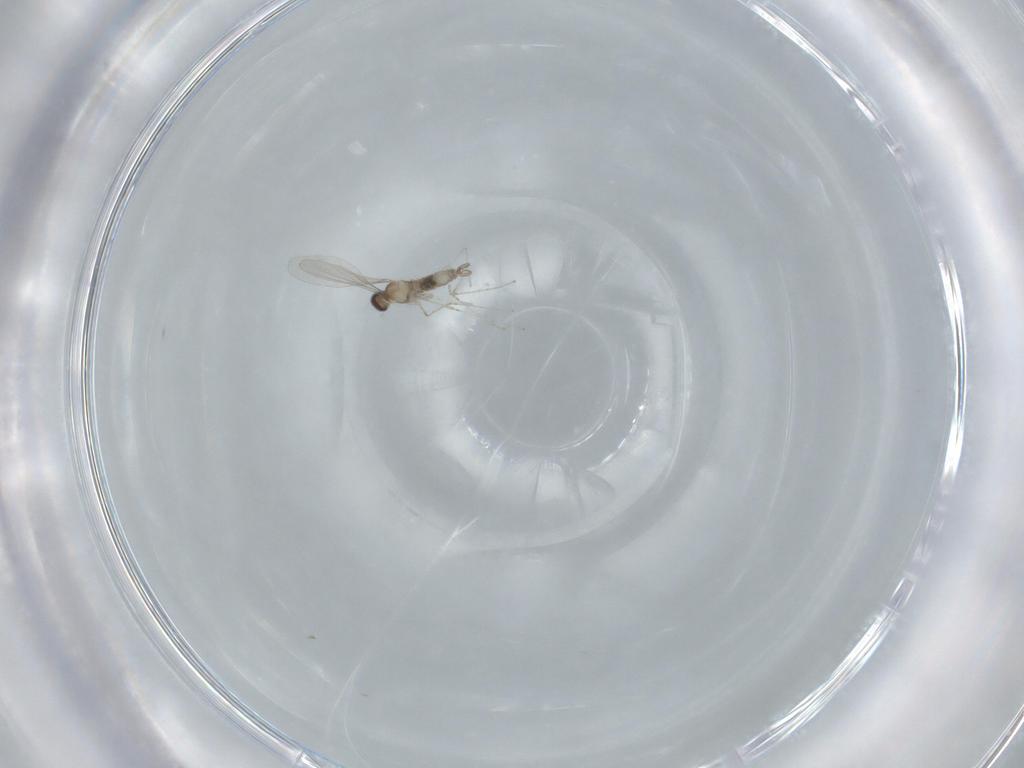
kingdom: Animalia
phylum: Arthropoda
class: Insecta
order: Diptera
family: Cecidomyiidae
